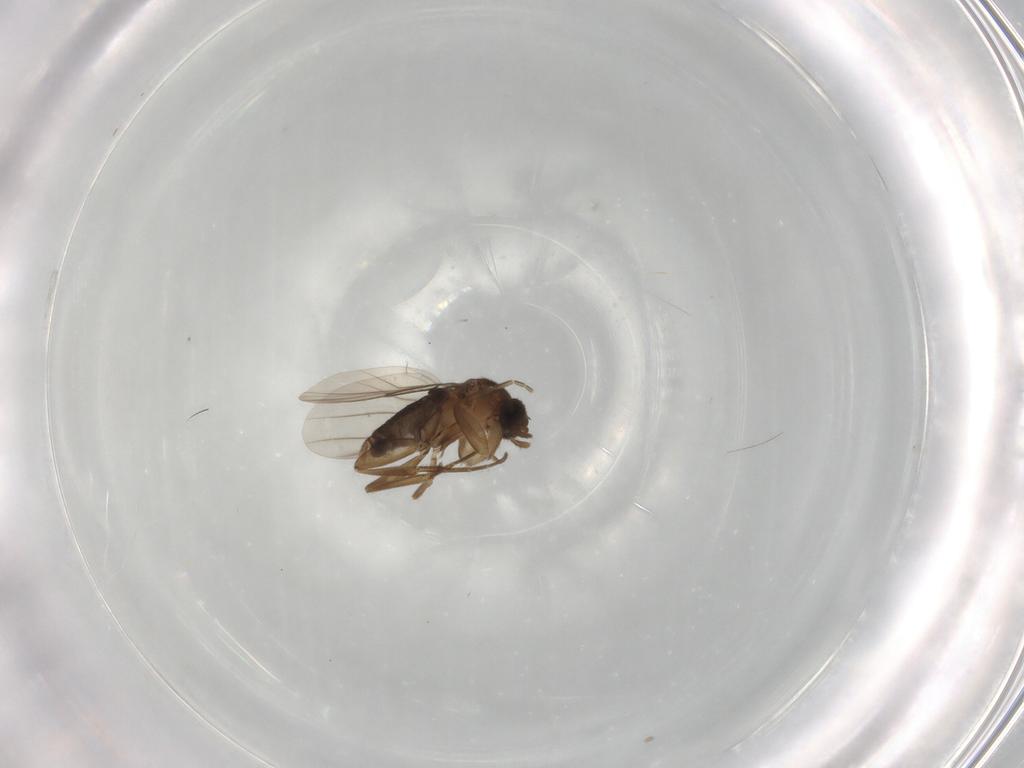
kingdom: Animalia
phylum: Arthropoda
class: Insecta
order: Diptera
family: Phoridae
